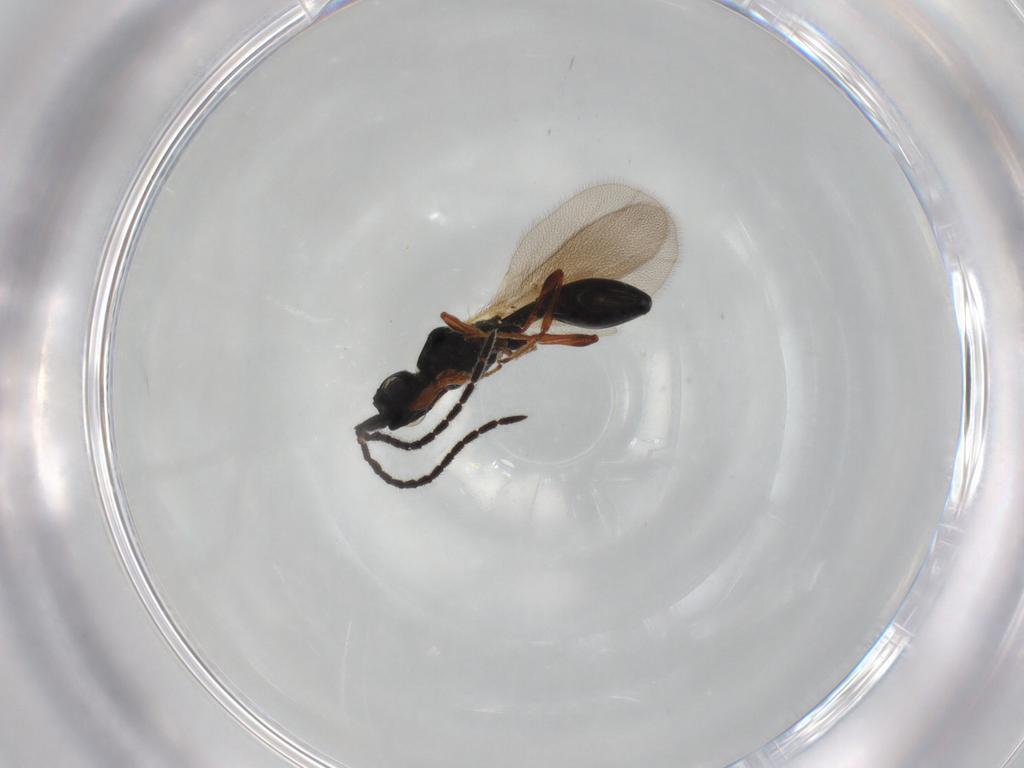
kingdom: Animalia
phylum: Arthropoda
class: Insecta
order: Hymenoptera
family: Diapriidae
